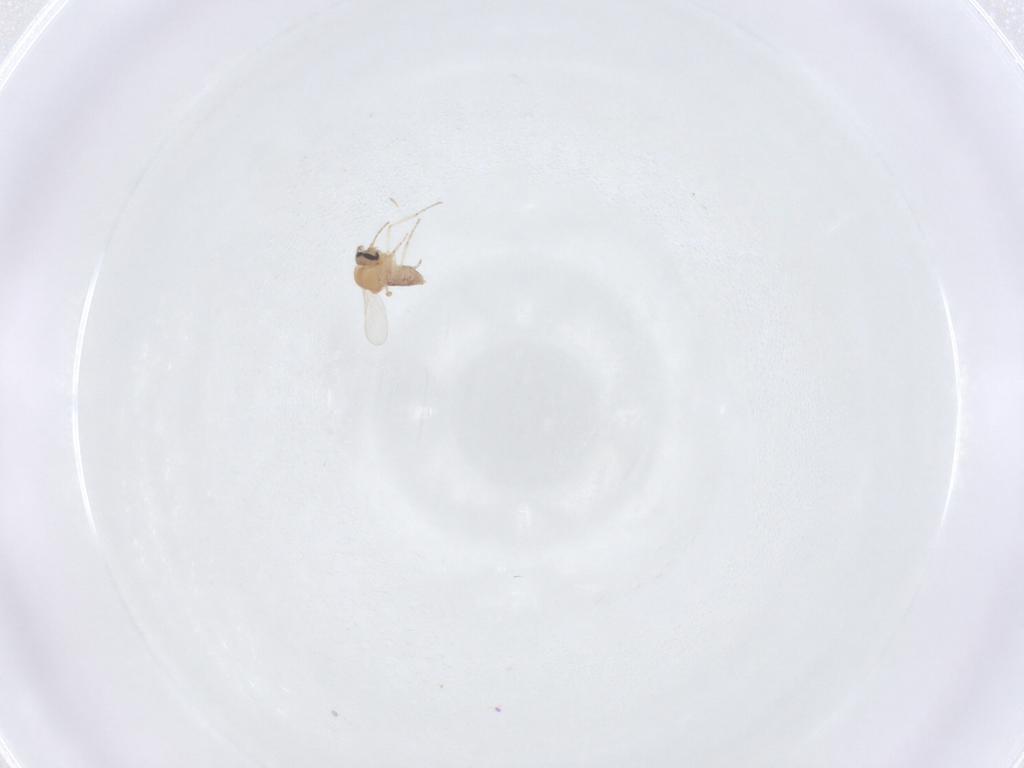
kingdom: Animalia
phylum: Arthropoda
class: Insecta
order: Diptera
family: Ceratopogonidae
